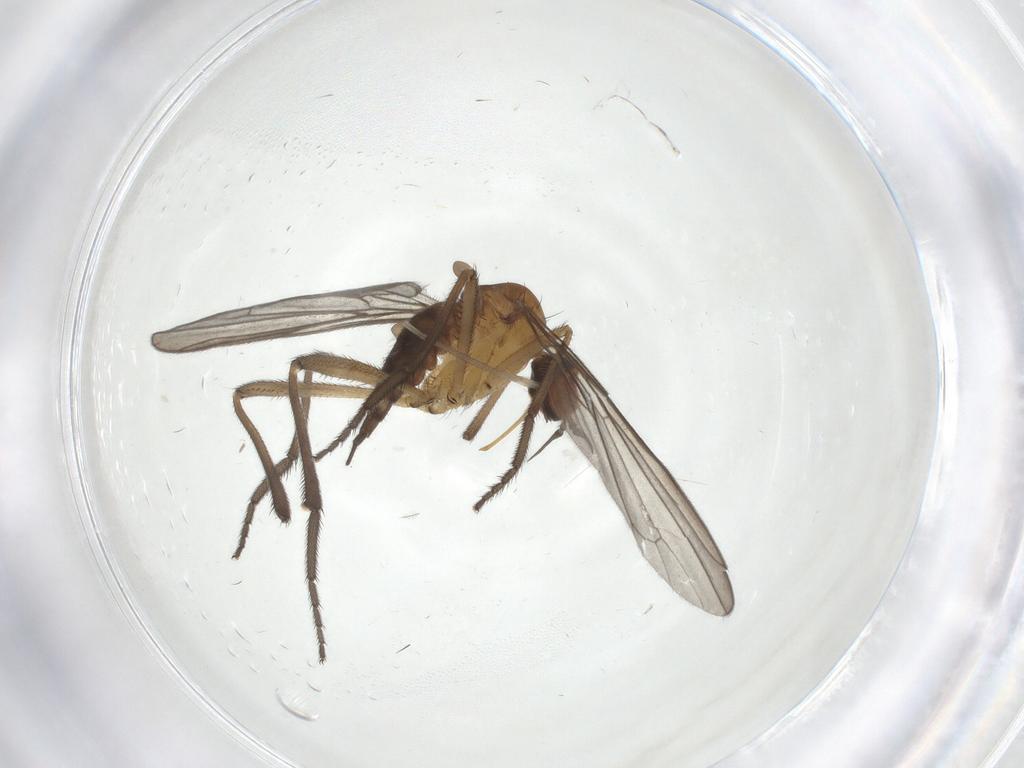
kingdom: Animalia
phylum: Arthropoda
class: Insecta
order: Diptera
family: Empididae
